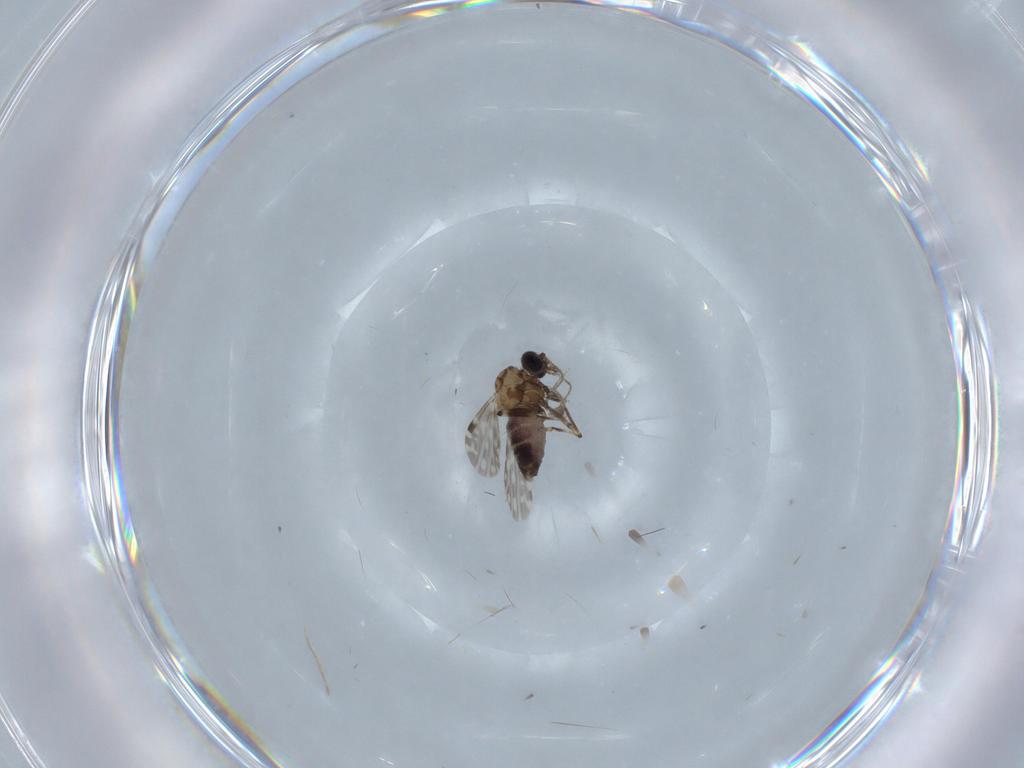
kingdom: Animalia
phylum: Arthropoda
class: Insecta
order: Diptera
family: Ceratopogonidae
